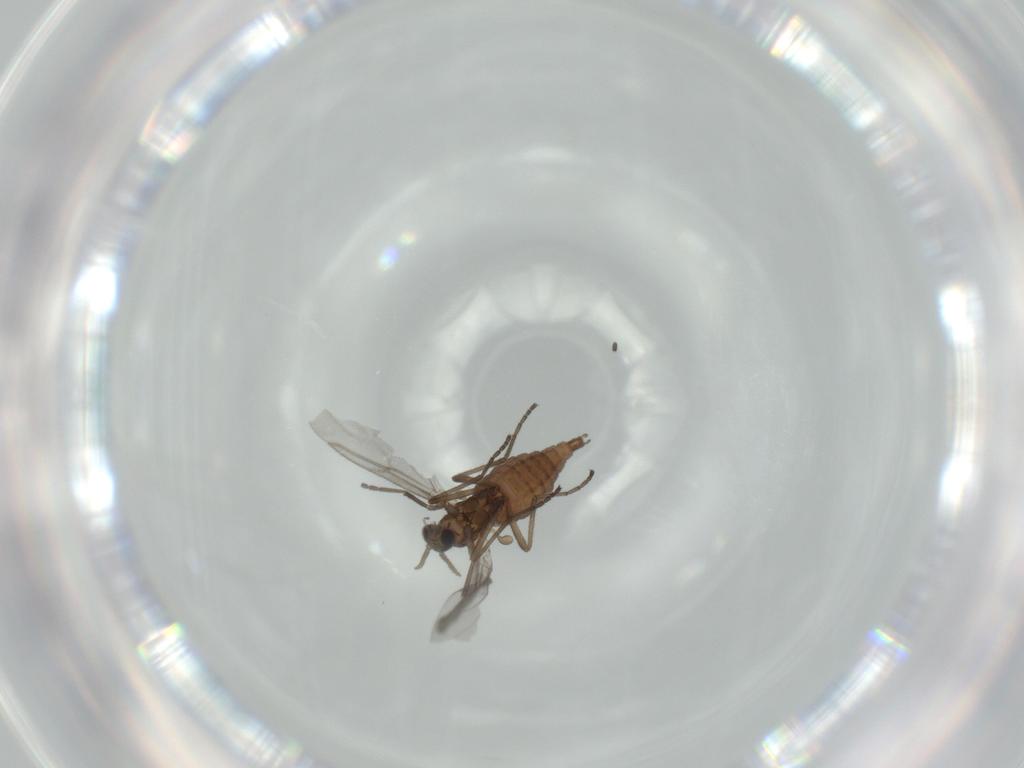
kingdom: Animalia
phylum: Arthropoda
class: Insecta
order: Diptera
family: Cecidomyiidae
